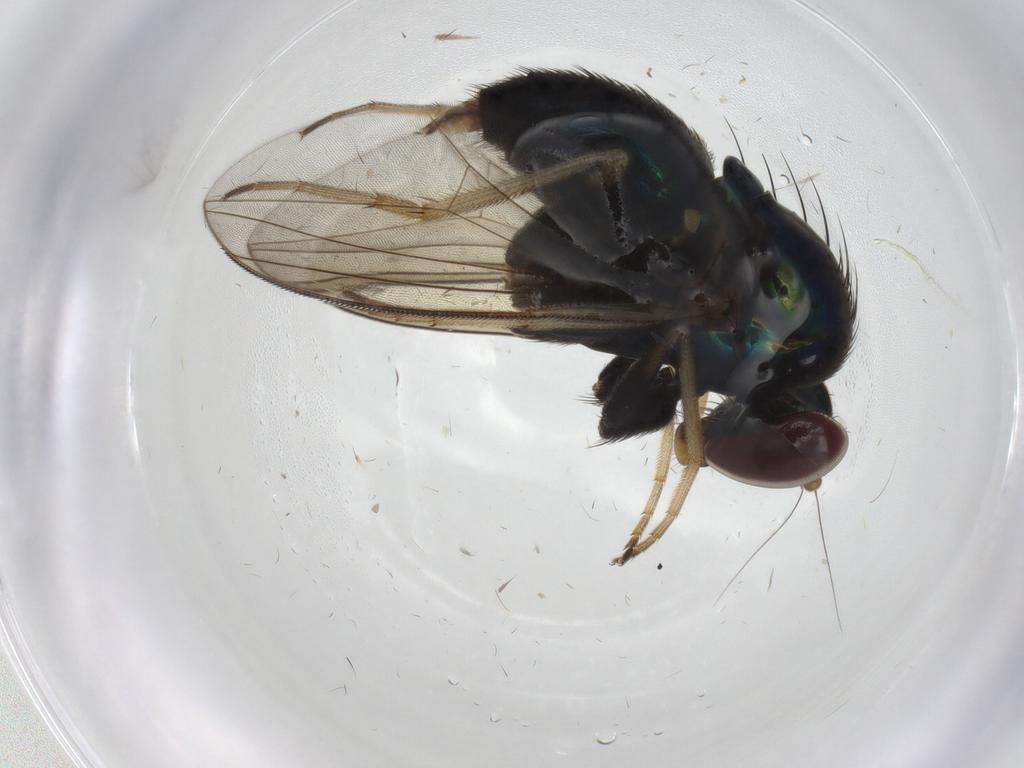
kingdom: Animalia
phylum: Arthropoda
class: Insecta
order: Diptera
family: Dolichopodidae
